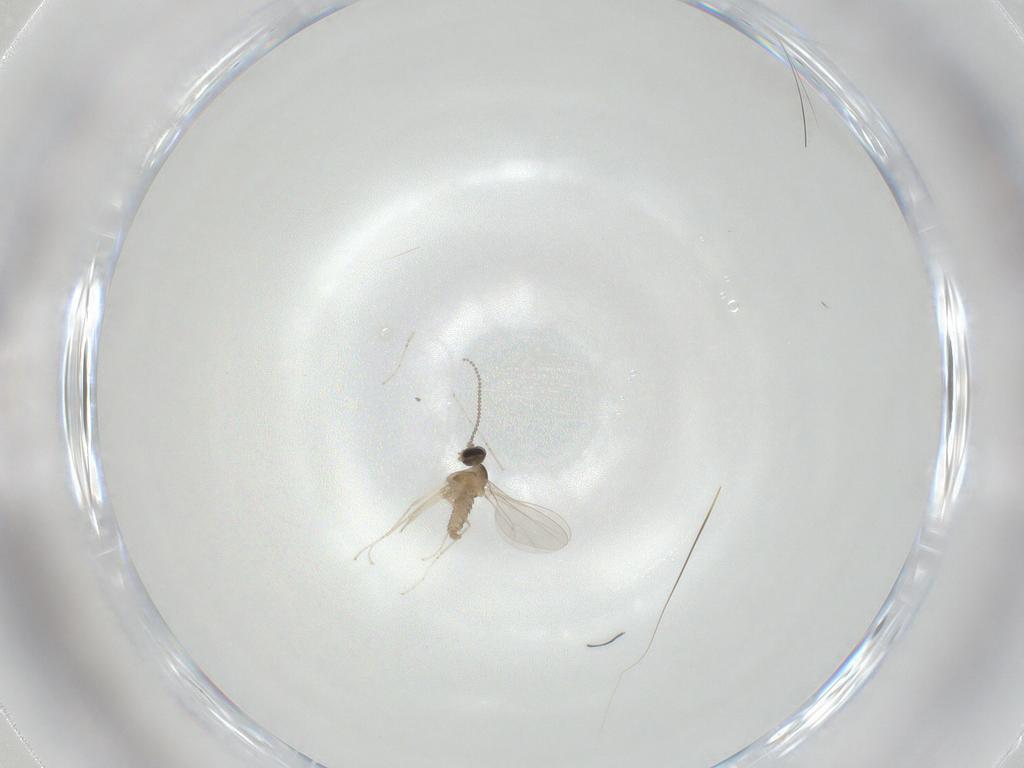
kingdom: Animalia
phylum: Arthropoda
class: Insecta
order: Diptera
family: Cecidomyiidae
